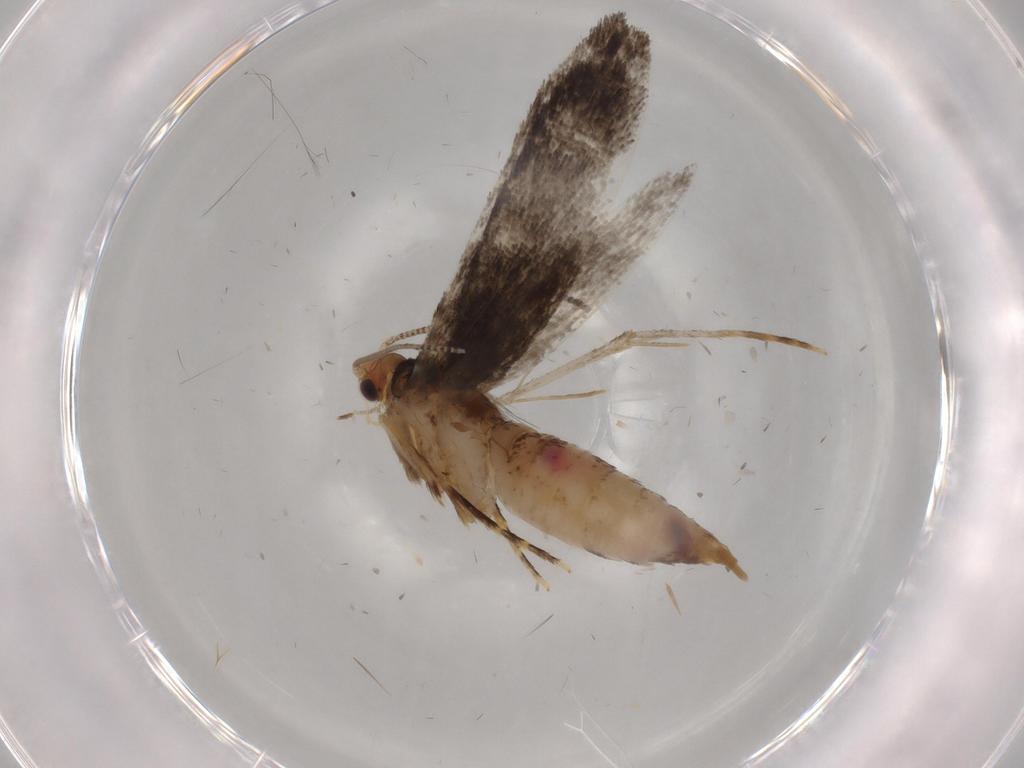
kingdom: Animalia
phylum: Arthropoda
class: Insecta
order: Lepidoptera
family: Tineidae
